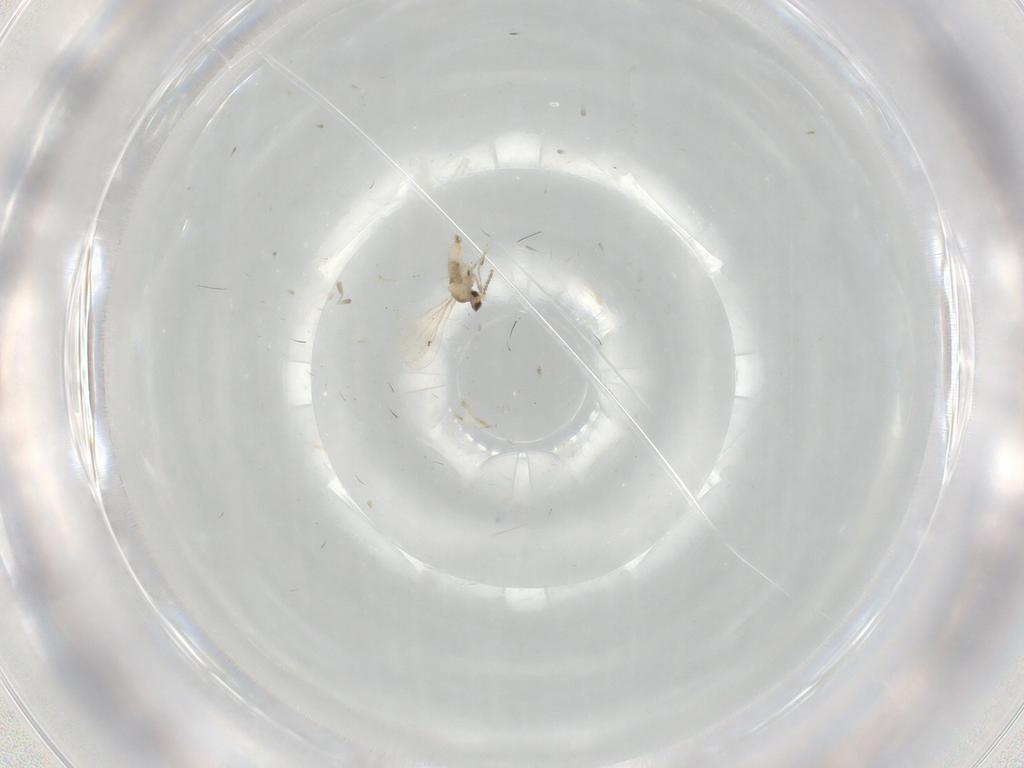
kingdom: Animalia
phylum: Arthropoda
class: Insecta
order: Diptera
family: Cecidomyiidae
